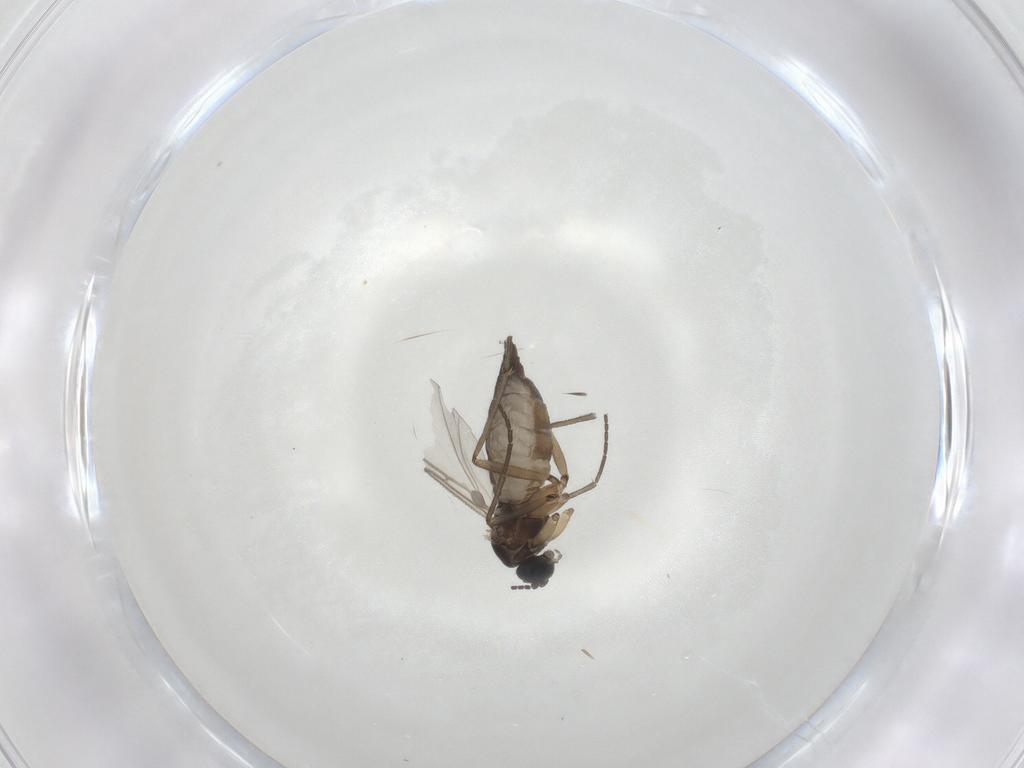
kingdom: Animalia
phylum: Arthropoda
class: Insecta
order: Diptera
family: Sciaridae
